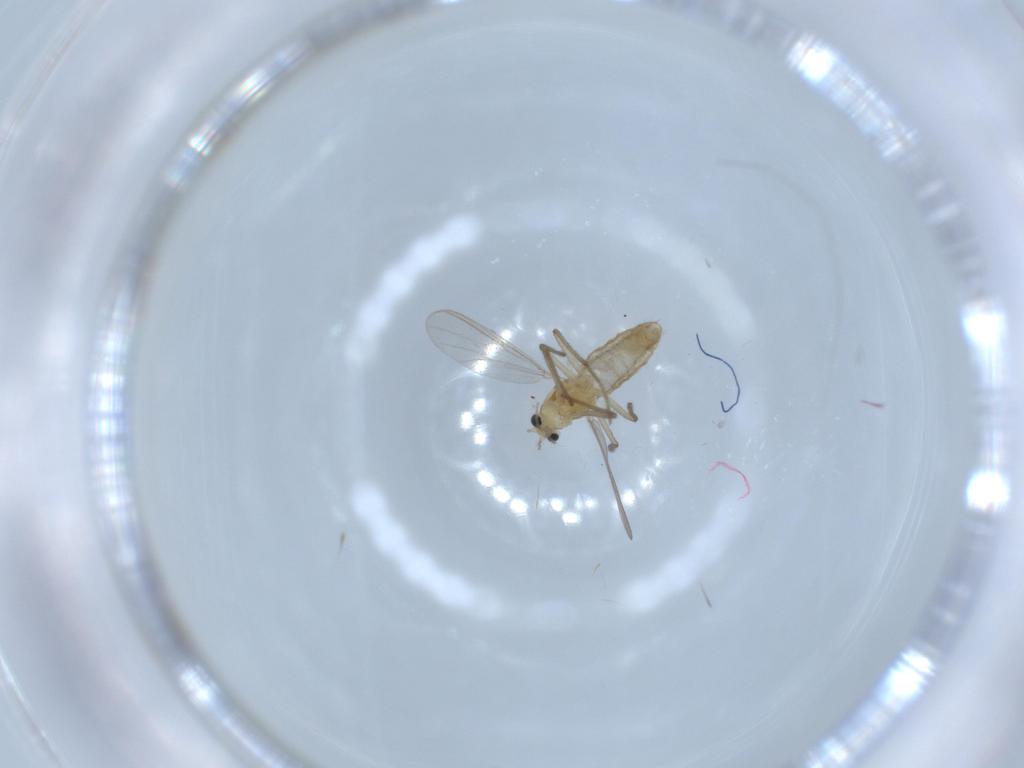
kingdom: Animalia
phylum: Arthropoda
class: Insecta
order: Diptera
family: Chironomidae
